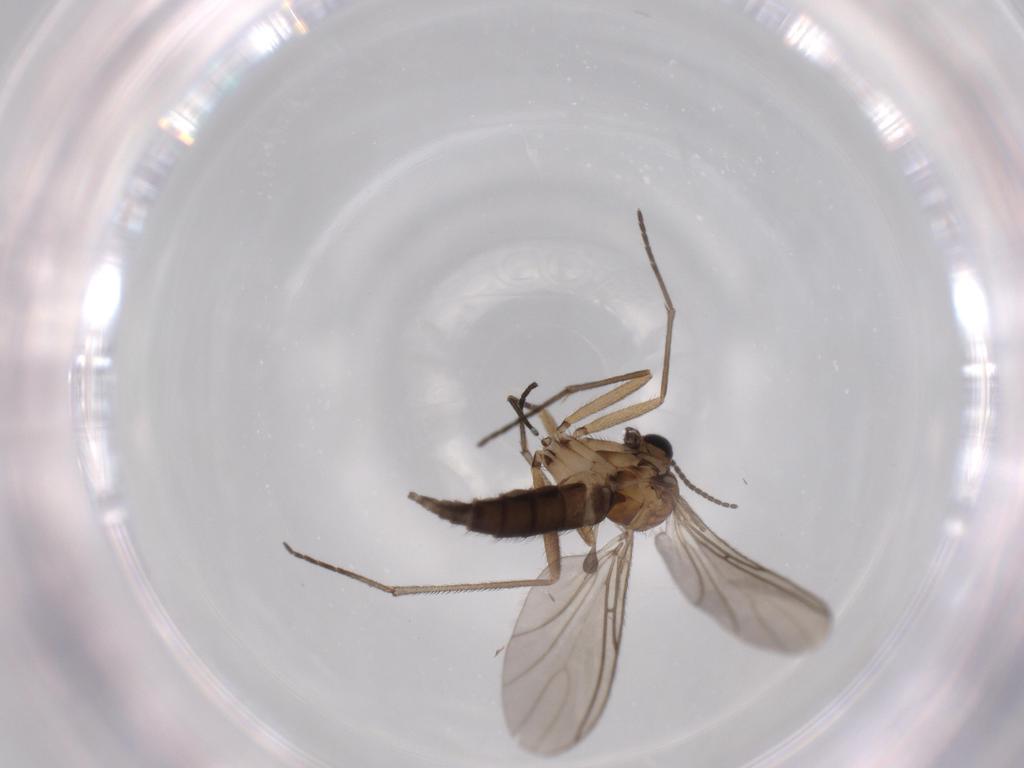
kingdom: Animalia
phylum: Arthropoda
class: Insecta
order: Diptera
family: Sciaridae
